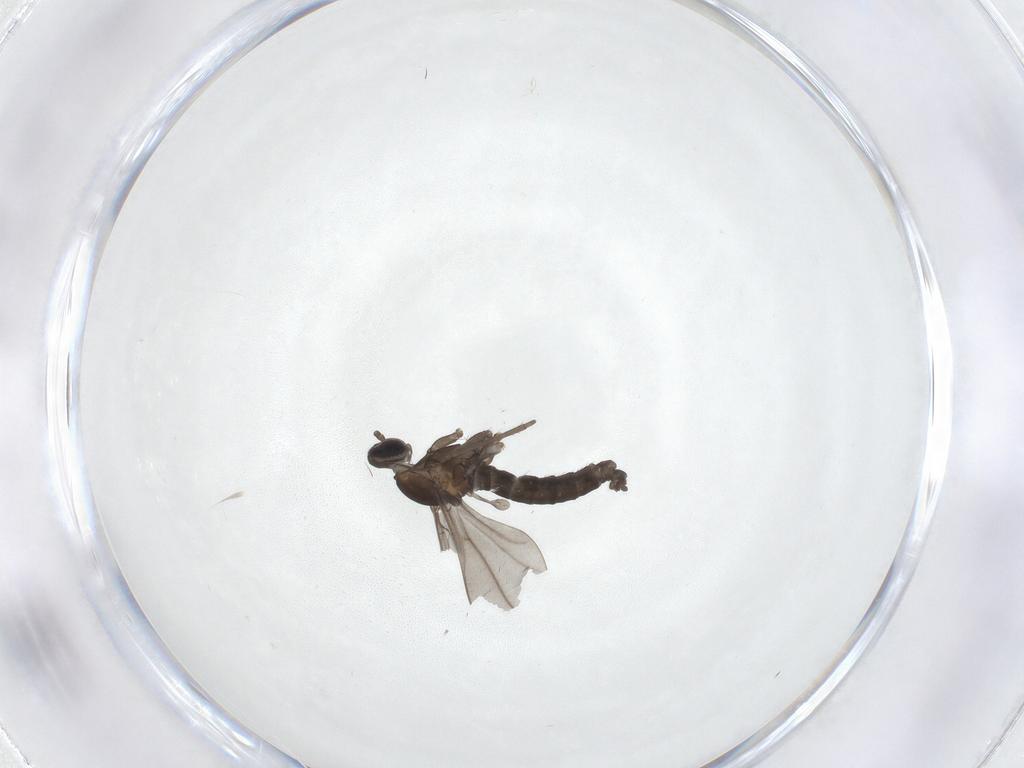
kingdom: Animalia
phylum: Arthropoda
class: Insecta
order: Diptera
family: Cecidomyiidae
